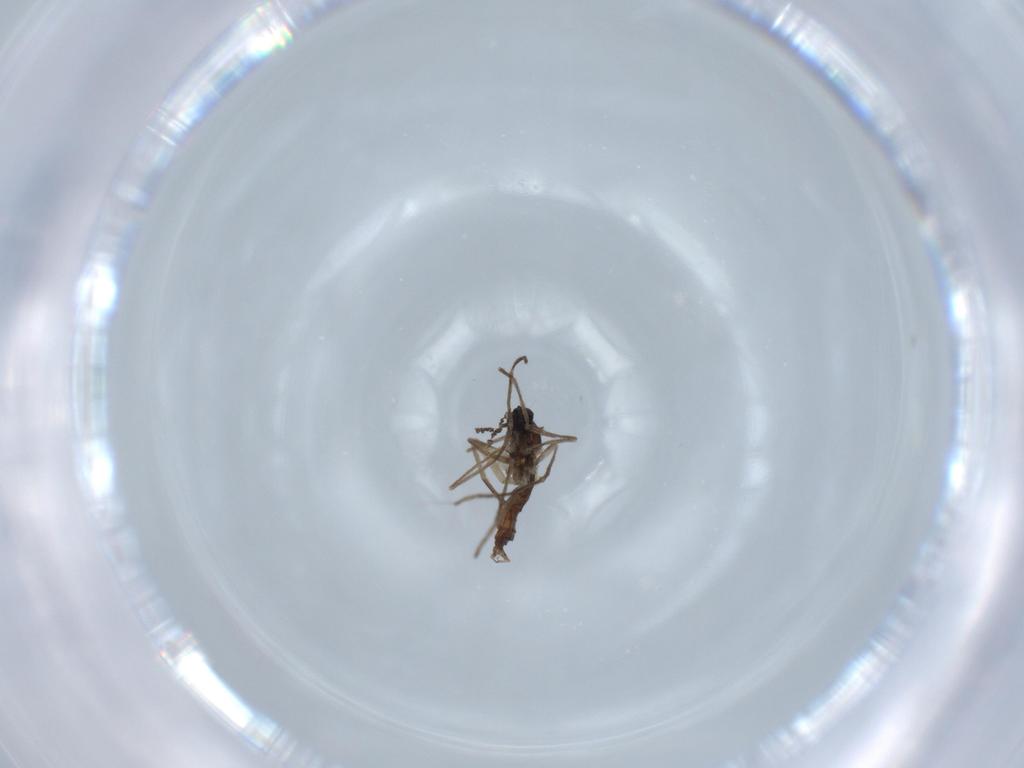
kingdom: Animalia
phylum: Arthropoda
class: Insecta
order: Diptera
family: Cecidomyiidae
